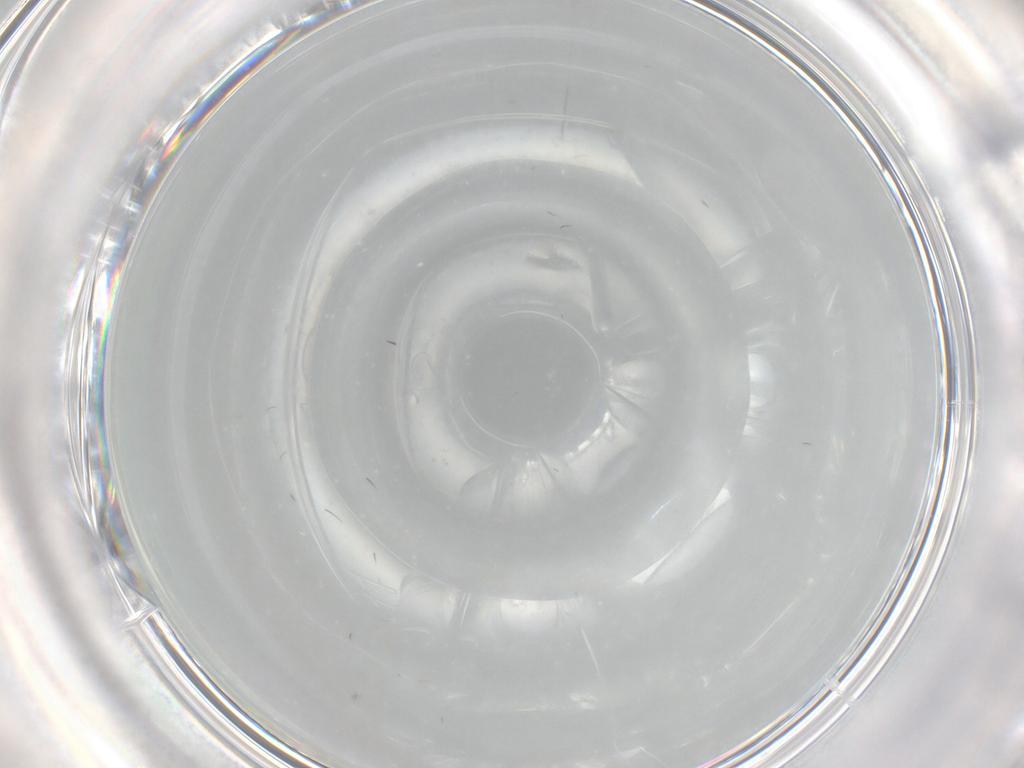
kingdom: Animalia
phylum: Arthropoda
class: Insecta
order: Diptera
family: Cecidomyiidae
